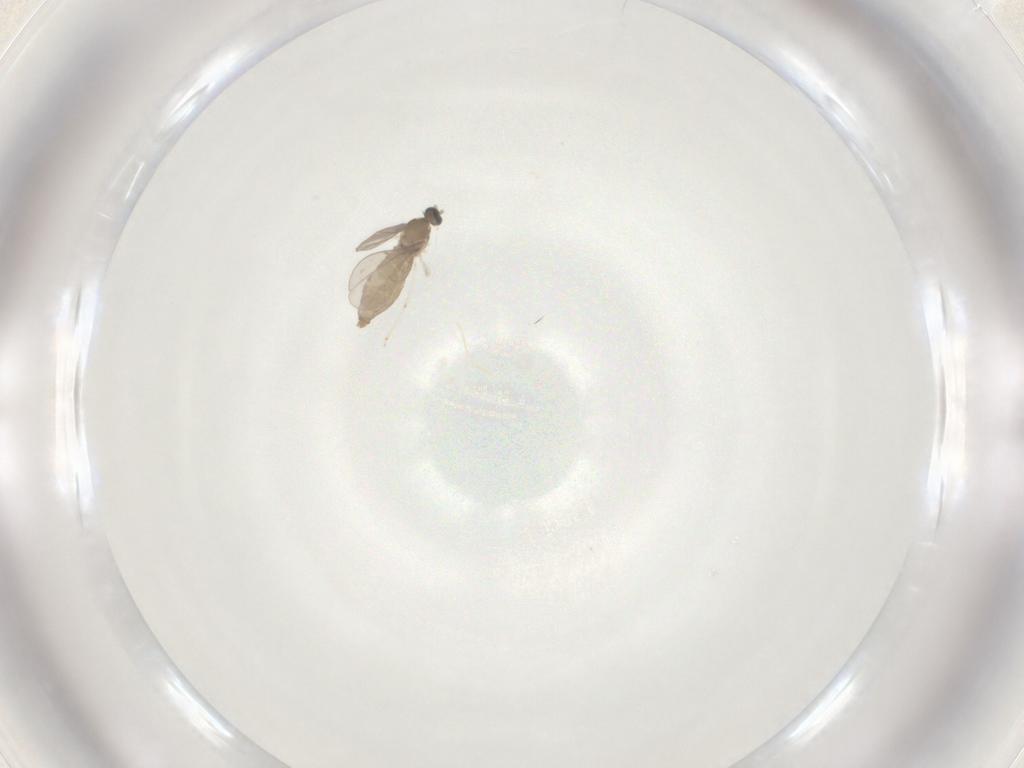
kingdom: Animalia
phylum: Arthropoda
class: Insecta
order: Diptera
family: Cecidomyiidae
